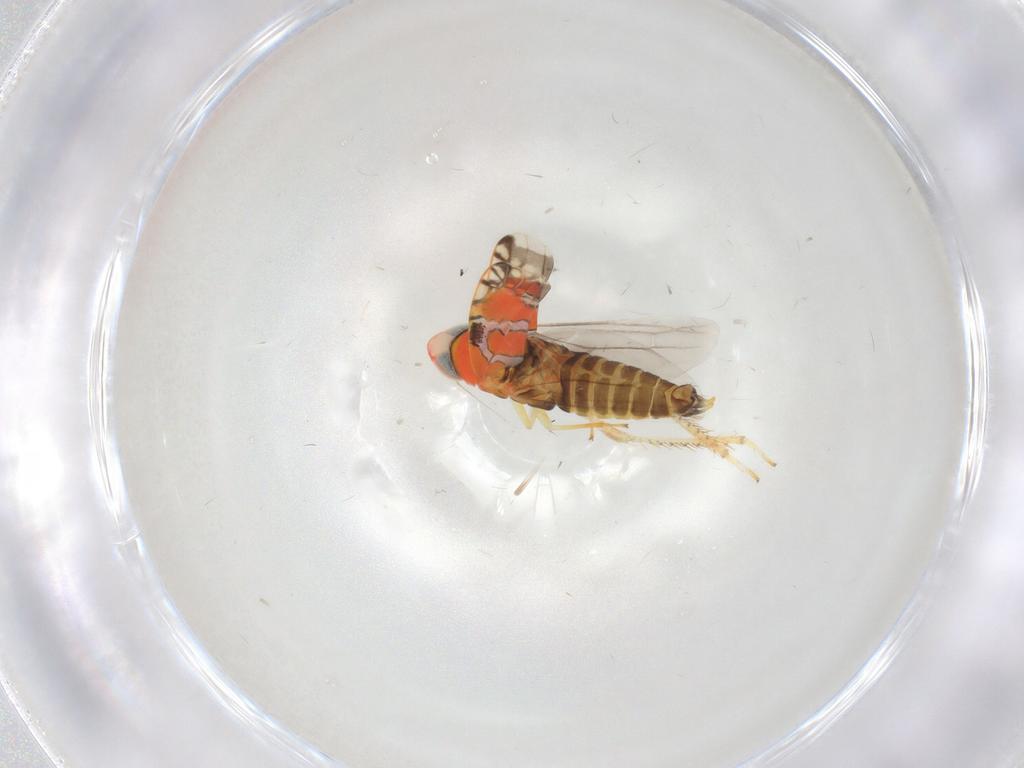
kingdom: Animalia
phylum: Arthropoda
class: Insecta
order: Hemiptera
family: Cicadellidae
